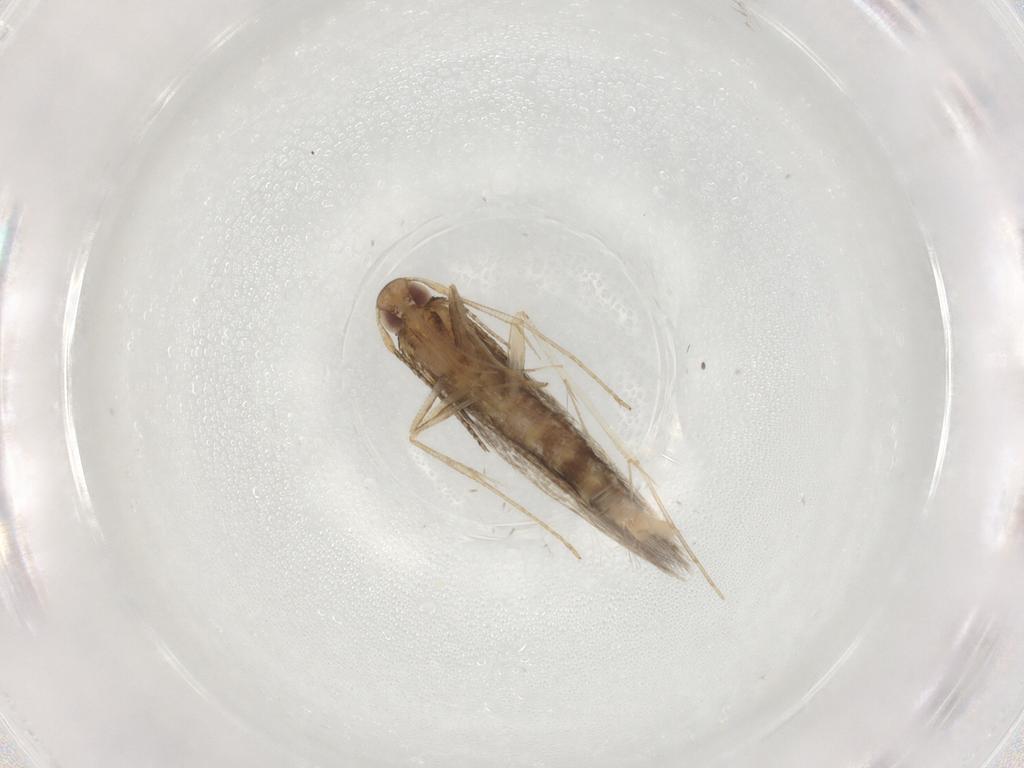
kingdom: Animalia
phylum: Arthropoda
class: Insecta
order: Lepidoptera
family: Cosmopterigidae
